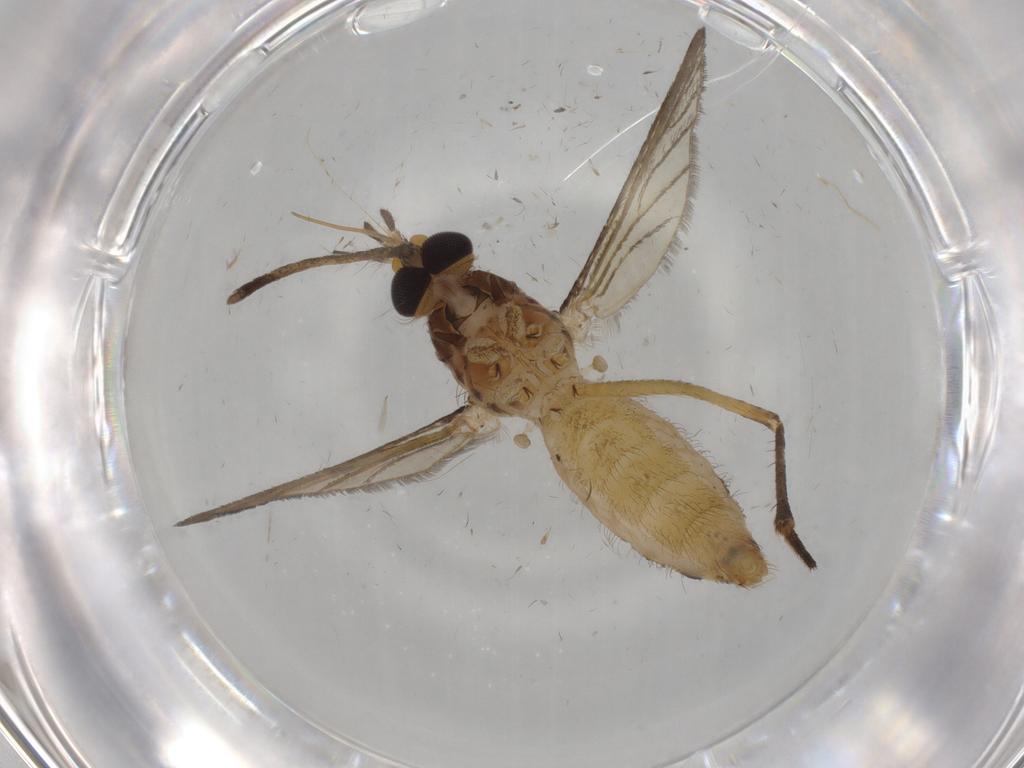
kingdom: Animalia
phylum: Arthropoda
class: Insecta
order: Diptera
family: Culicidae
